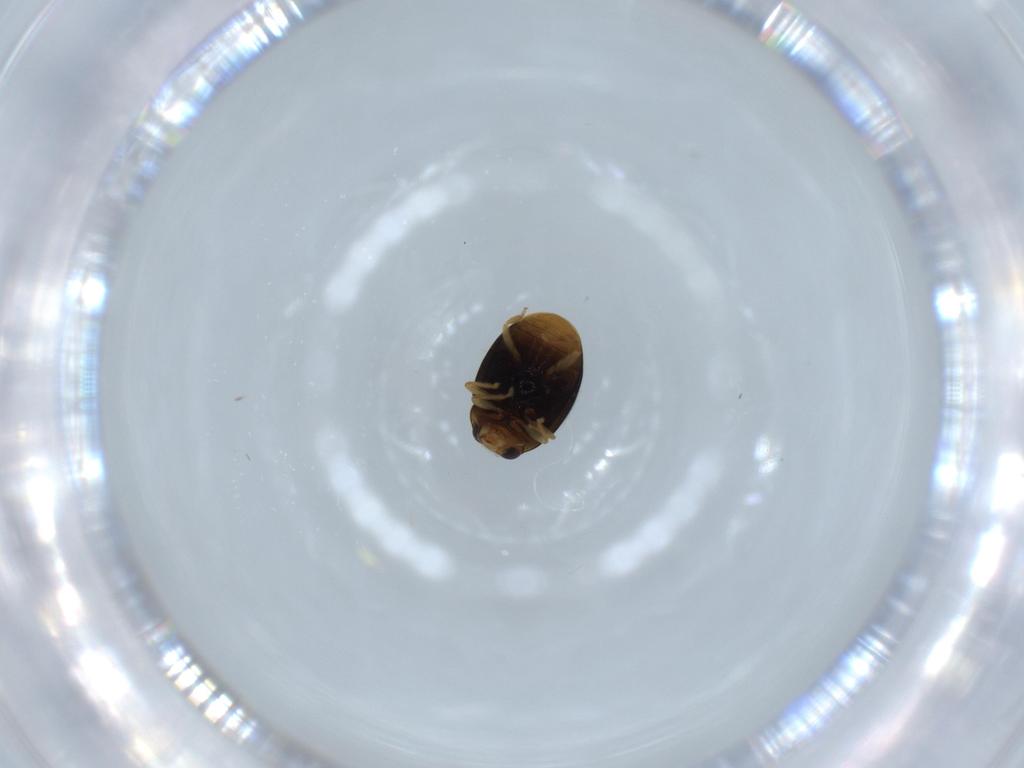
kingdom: Animalia
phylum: Arthropoda
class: Insecta
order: Coleoptera
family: Coccinellidae
